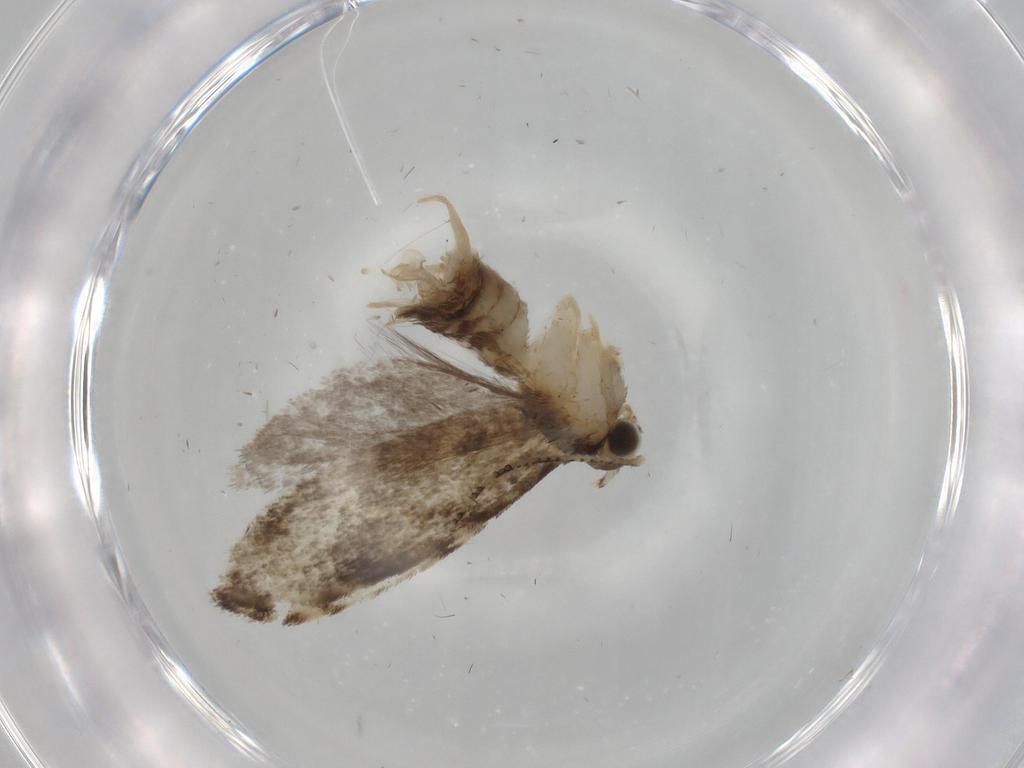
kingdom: Animalia
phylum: Arthropoda
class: Insecta
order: Lepidoptera
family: Tineidae
